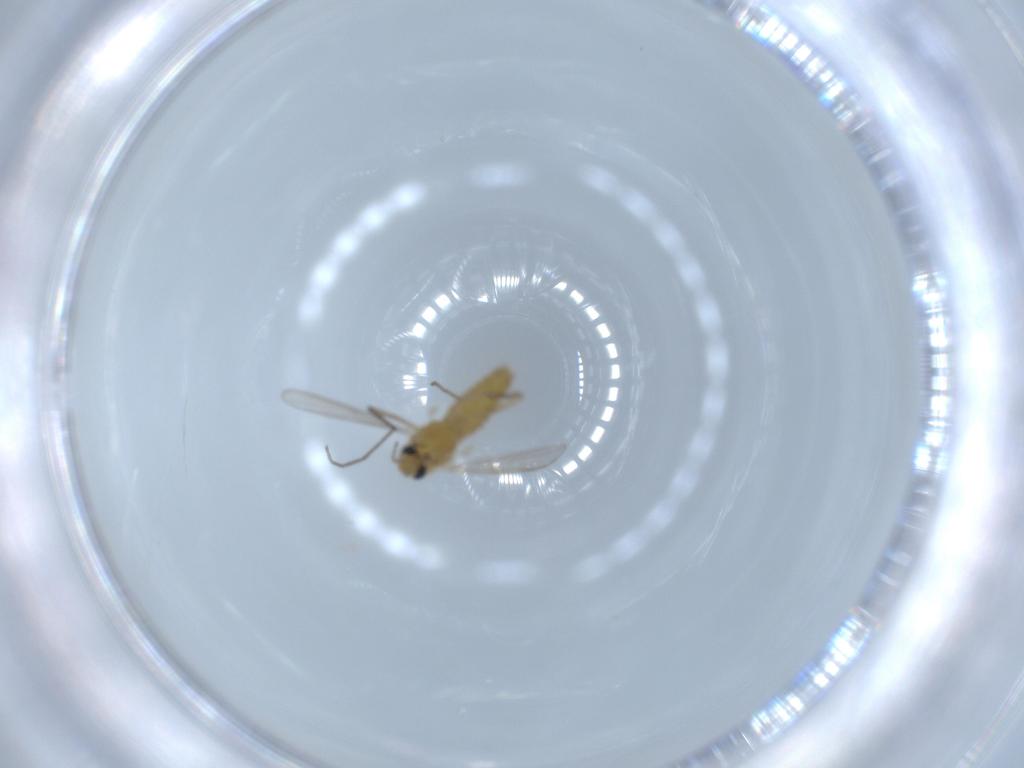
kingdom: Animalia
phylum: Arthropoda
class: Insecta
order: Diptera
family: Chironomidae
